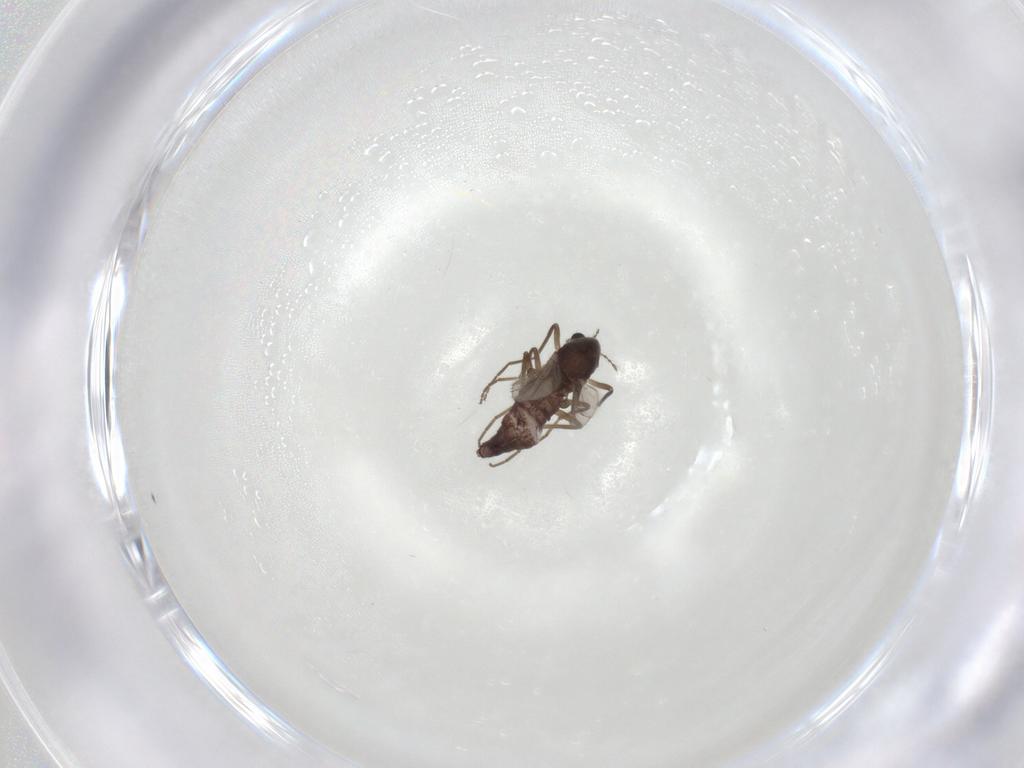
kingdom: Animalia
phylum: Arthropoda
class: Insecta
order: Diptera
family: Chironomidae
